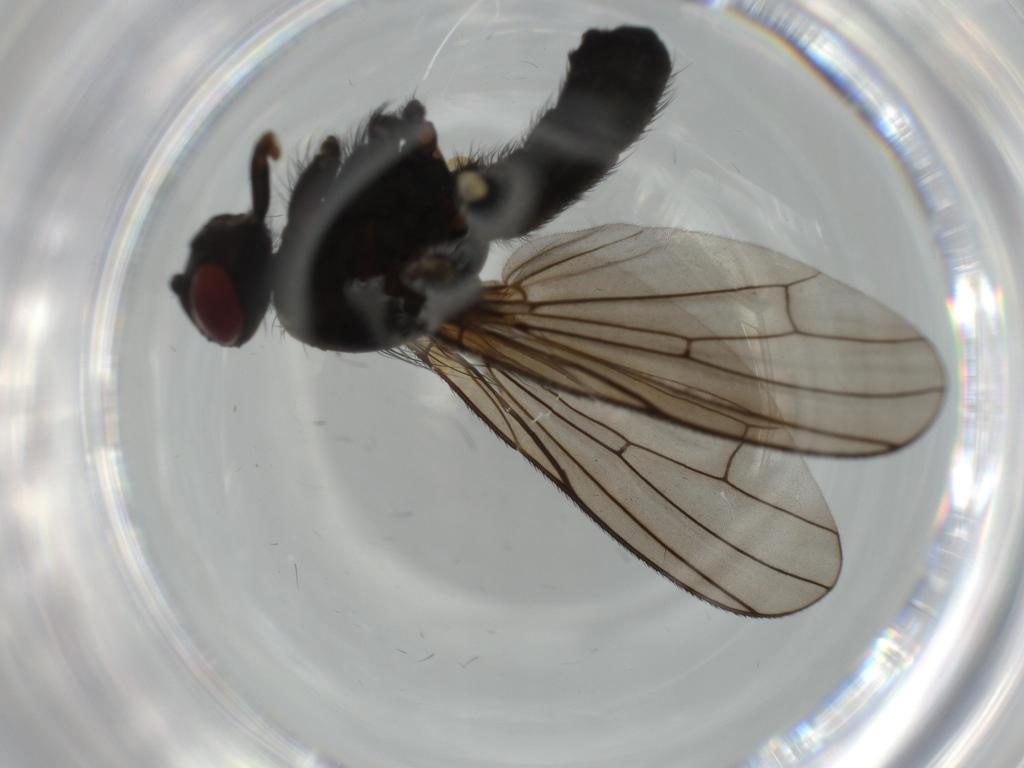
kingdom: Animalia
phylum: Arthropoda
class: Insecta
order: Diptera
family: Anthomyiidae
